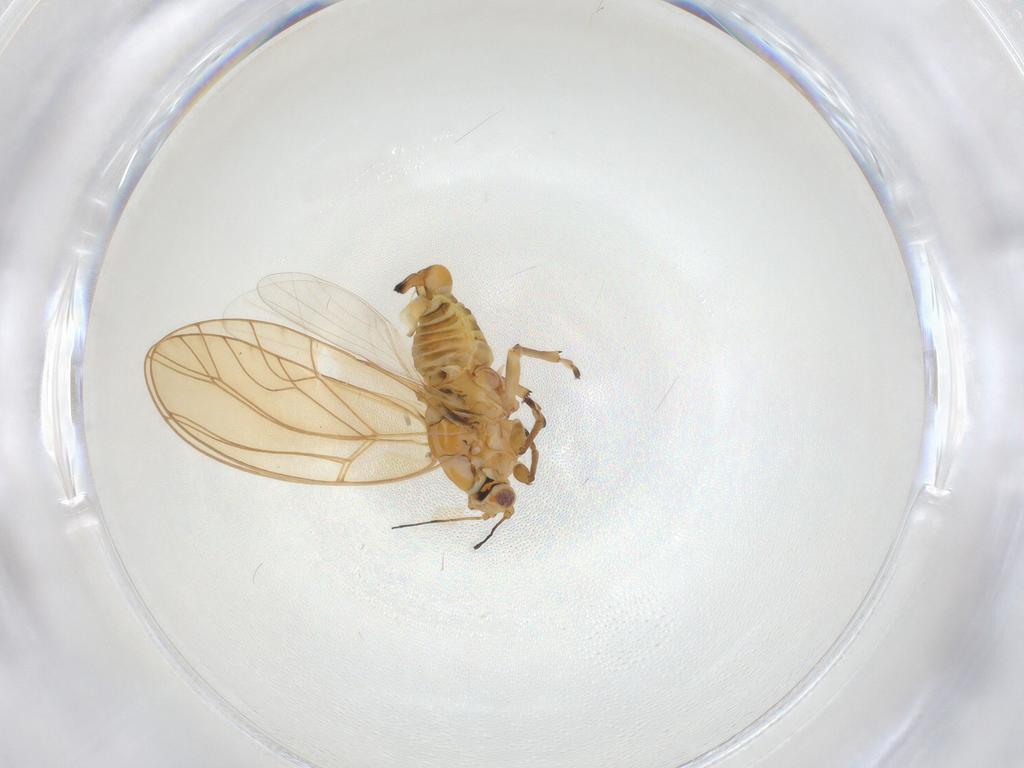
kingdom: Animalia
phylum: Arthropoda
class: Insecta
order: Hemiptera
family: Triozidae
